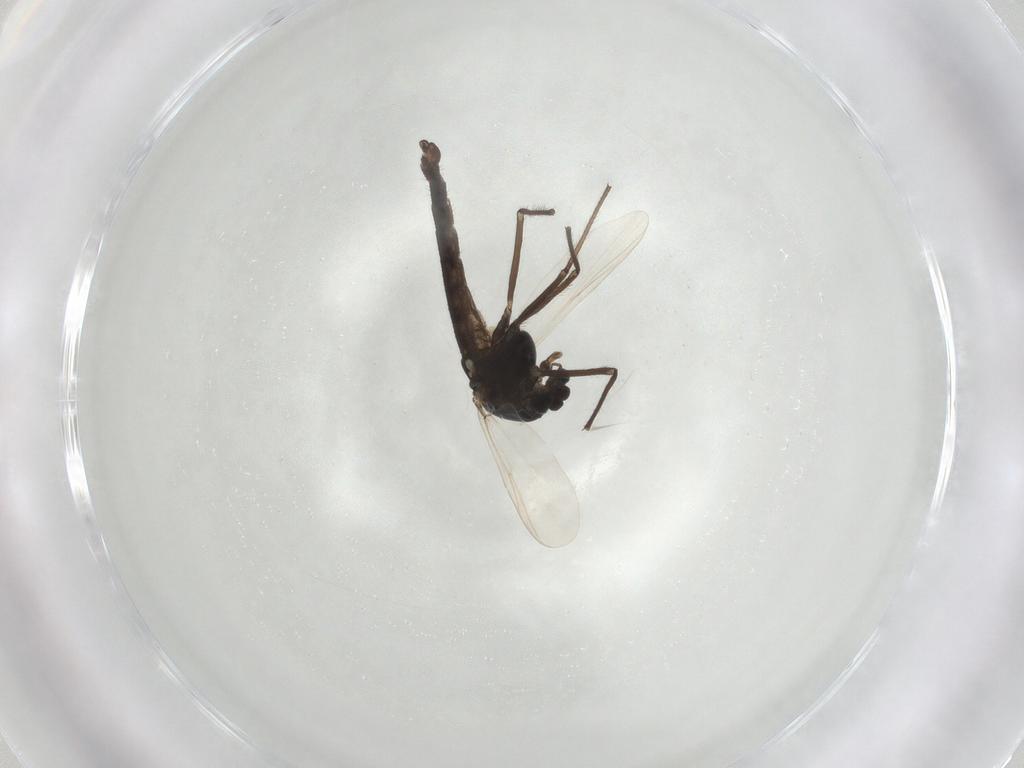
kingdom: Animalia
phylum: Arthropoda
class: Insecta
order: Diptera
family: Chironomidae
